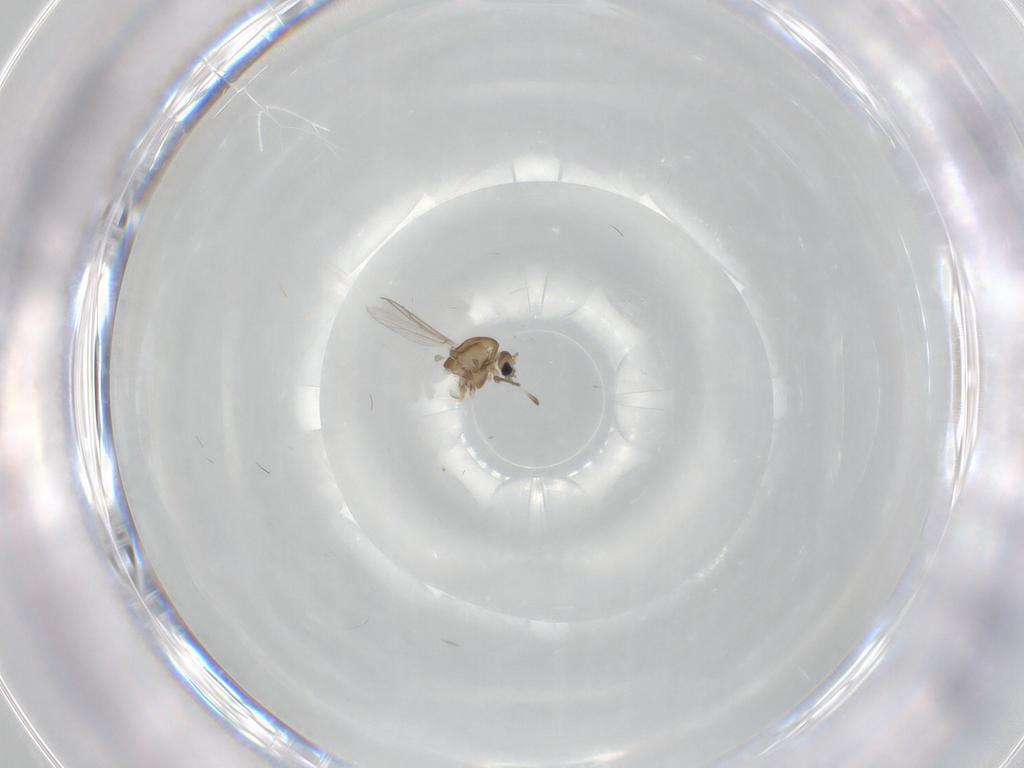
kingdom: Animalia
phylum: Arthropoda
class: Insecta
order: Diptera
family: Chironomidae
